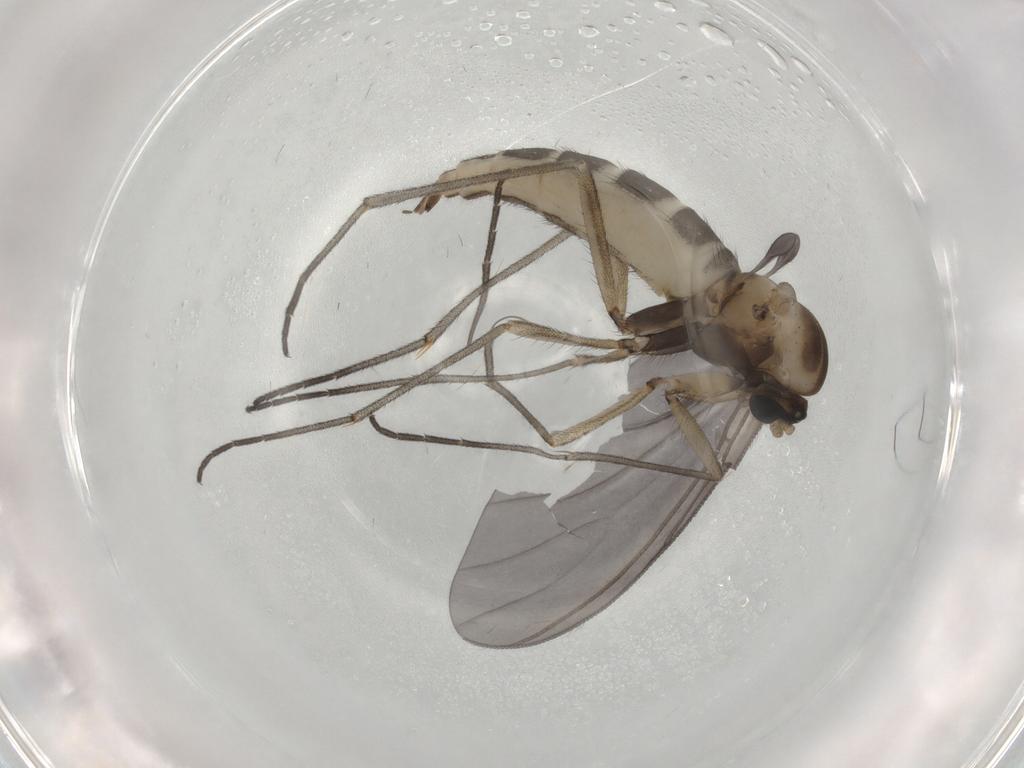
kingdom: Animalia
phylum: Arthropoda
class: Insecta
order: Diptera
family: Sciaridae
